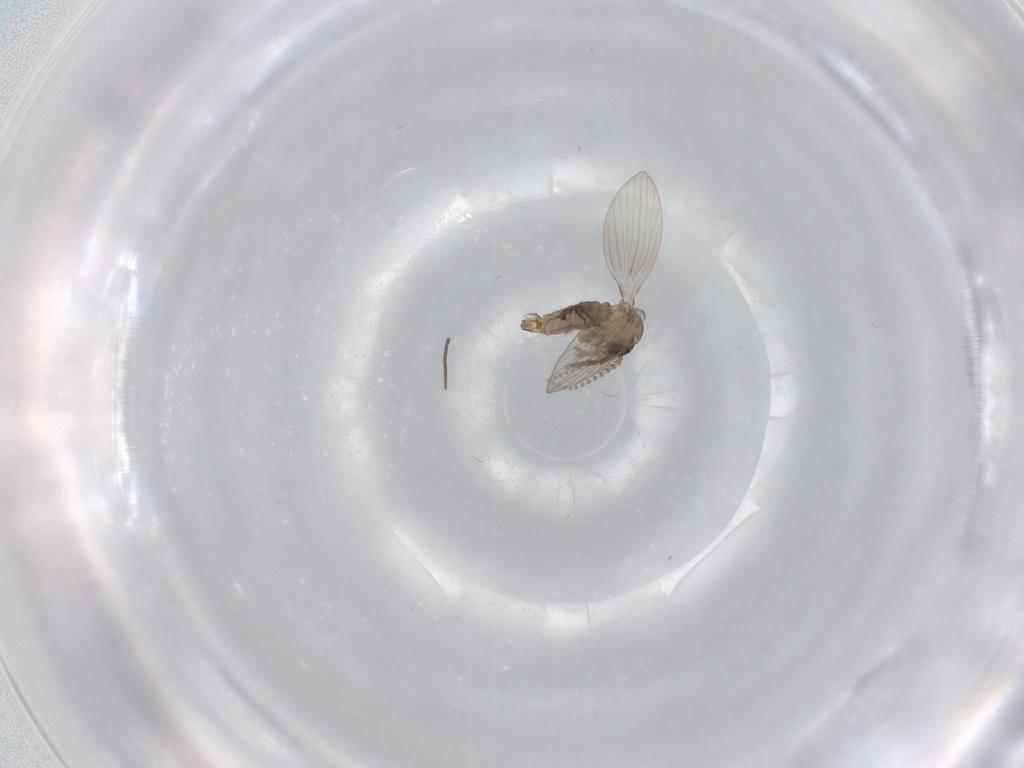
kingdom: Animalia
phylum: Arthropoda
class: Insecta
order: Diptera
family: Psychodidae
